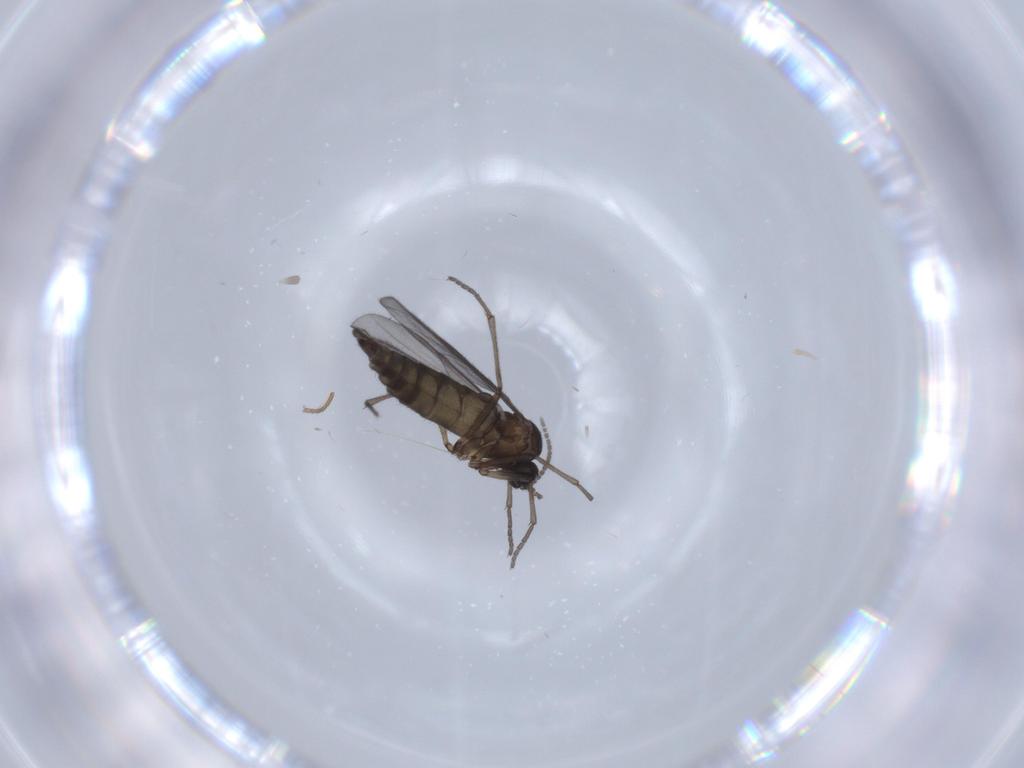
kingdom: Animalia
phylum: Arthropoda
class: Insecta
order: Diptera
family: Sciaridae
